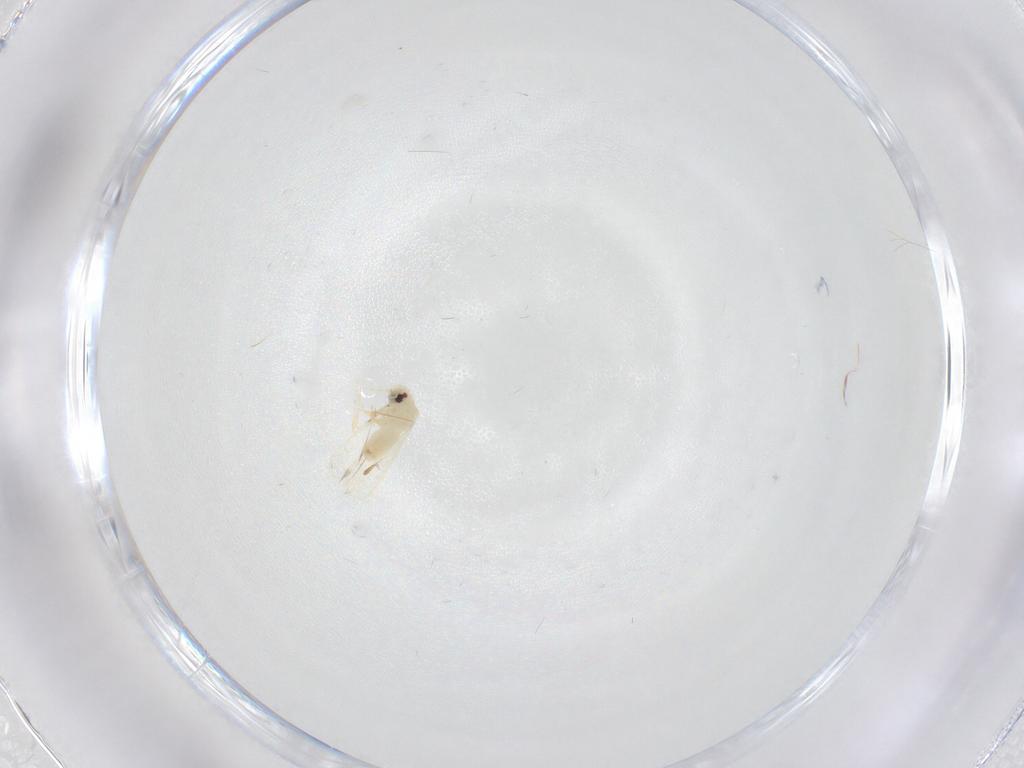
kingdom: Animalia
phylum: Arthropoda
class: Insecta
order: Hemiptera
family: Aleyrodidae
